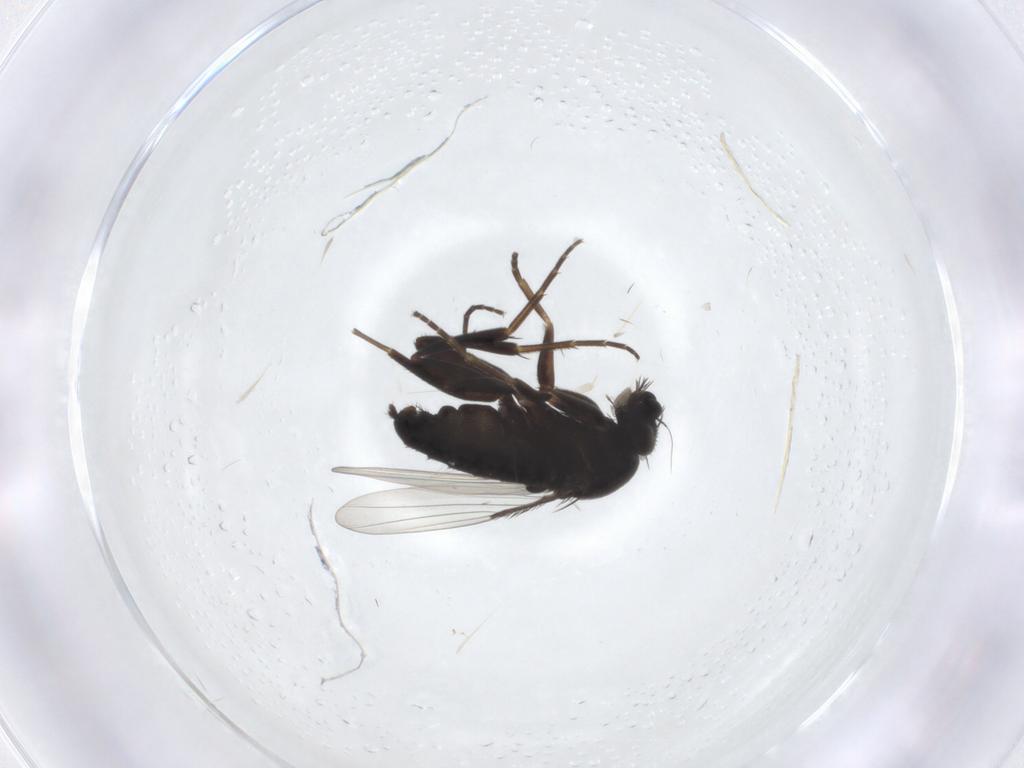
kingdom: Animalia
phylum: Arthropoda
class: Insecta
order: Diptera
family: Phoridae
